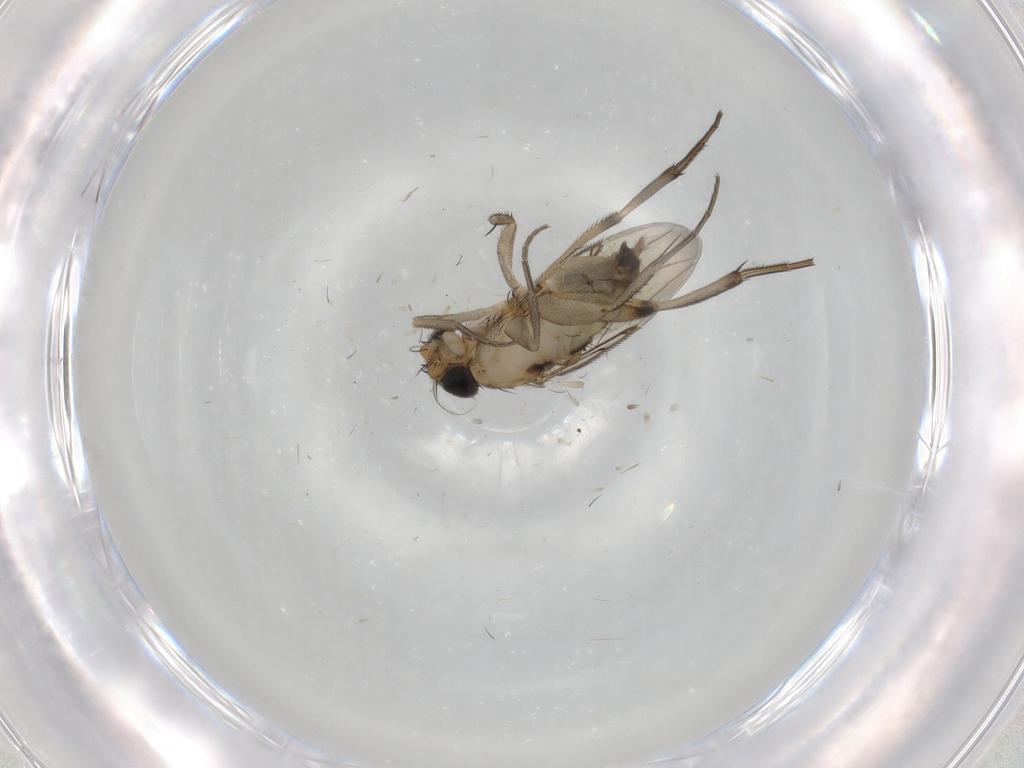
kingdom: Animalia
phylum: Arthropoda
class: Insecta
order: Diptera
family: Phoridae
